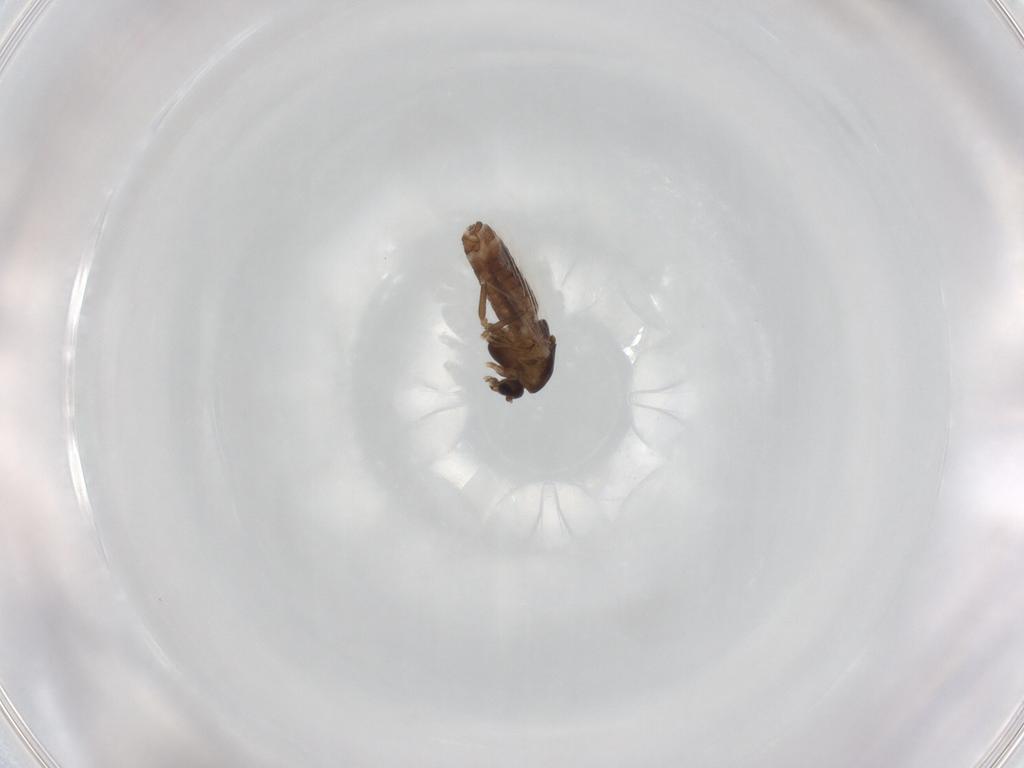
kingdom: Animalia
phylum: Arthropoda
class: Insecta
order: Diptera
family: Chironomidae
